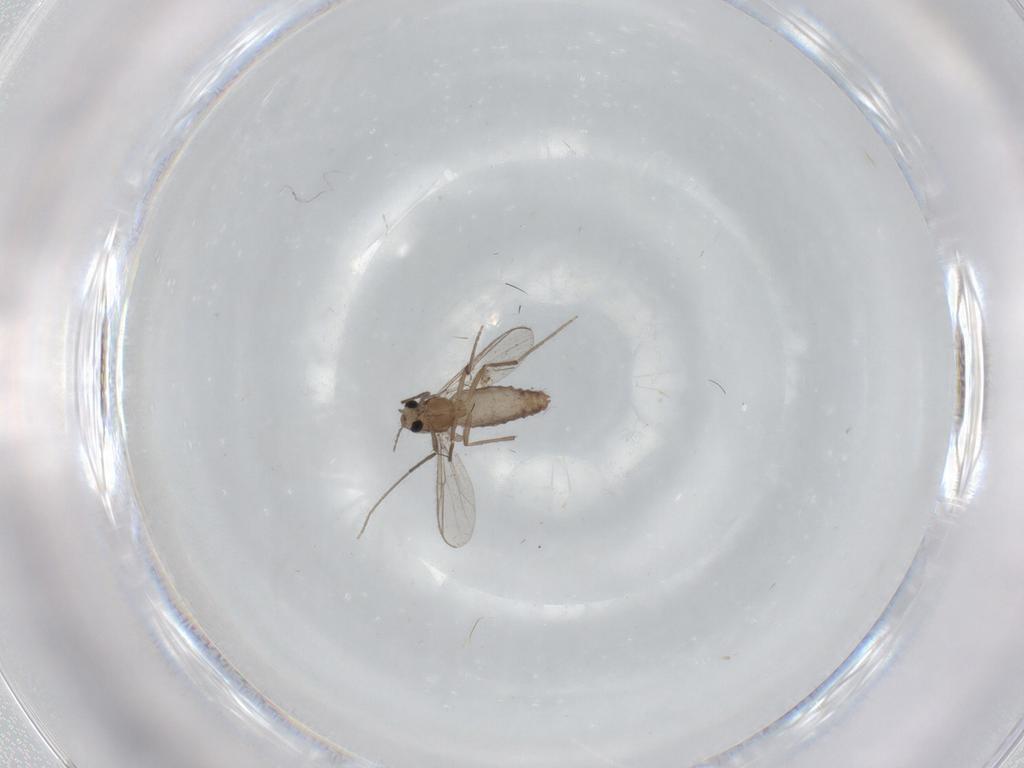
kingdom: Animalia
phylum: Arthropoda
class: Insecta
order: Diptera
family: Chironomidae
